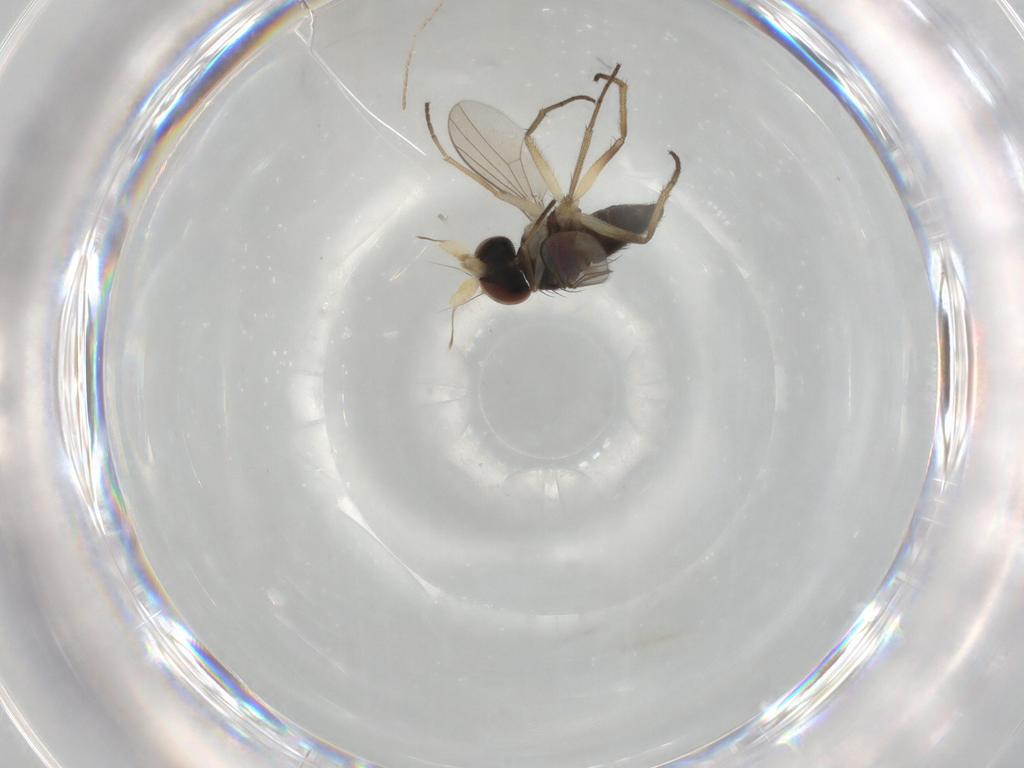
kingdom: Animalia
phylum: Arthropoda
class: Insecta
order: Diptera
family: Dolichopodidae
